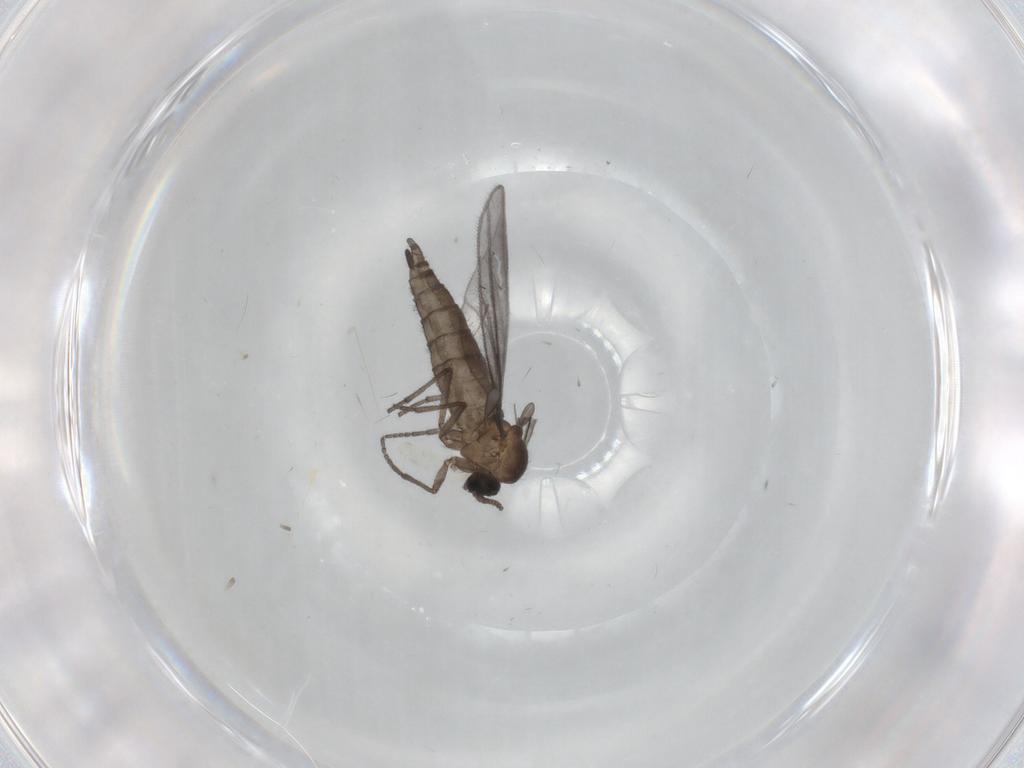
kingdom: Animalia
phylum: Arthropoda
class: Insecta
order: Diptera
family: Sciaridae
